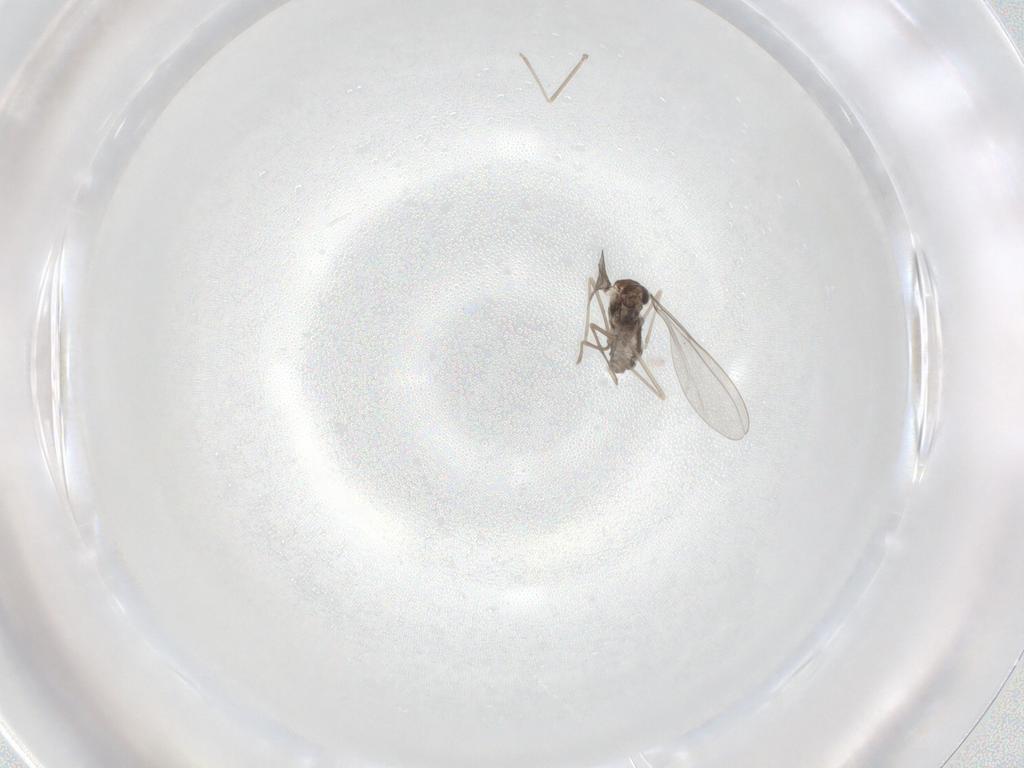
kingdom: Animalia
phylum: Arthropoda
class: Insecta
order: Diptera
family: Cecidomyiidae
